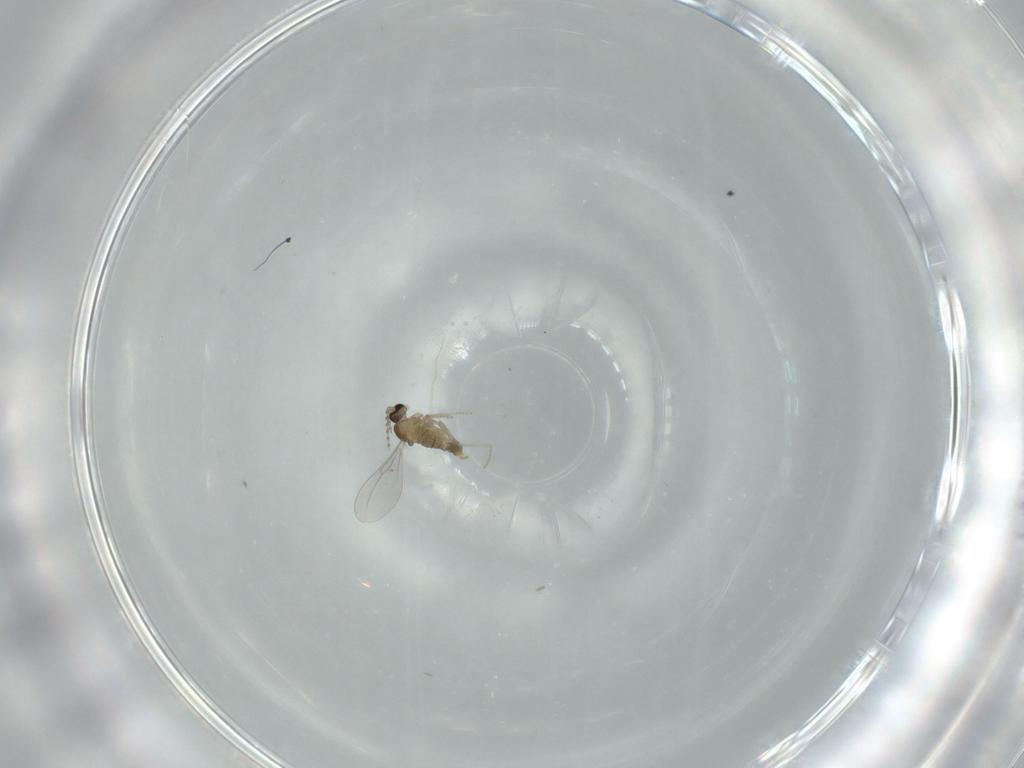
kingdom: Animalia
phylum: Arthropoda
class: Insecta
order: Diptera
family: Cecidomyiidae
